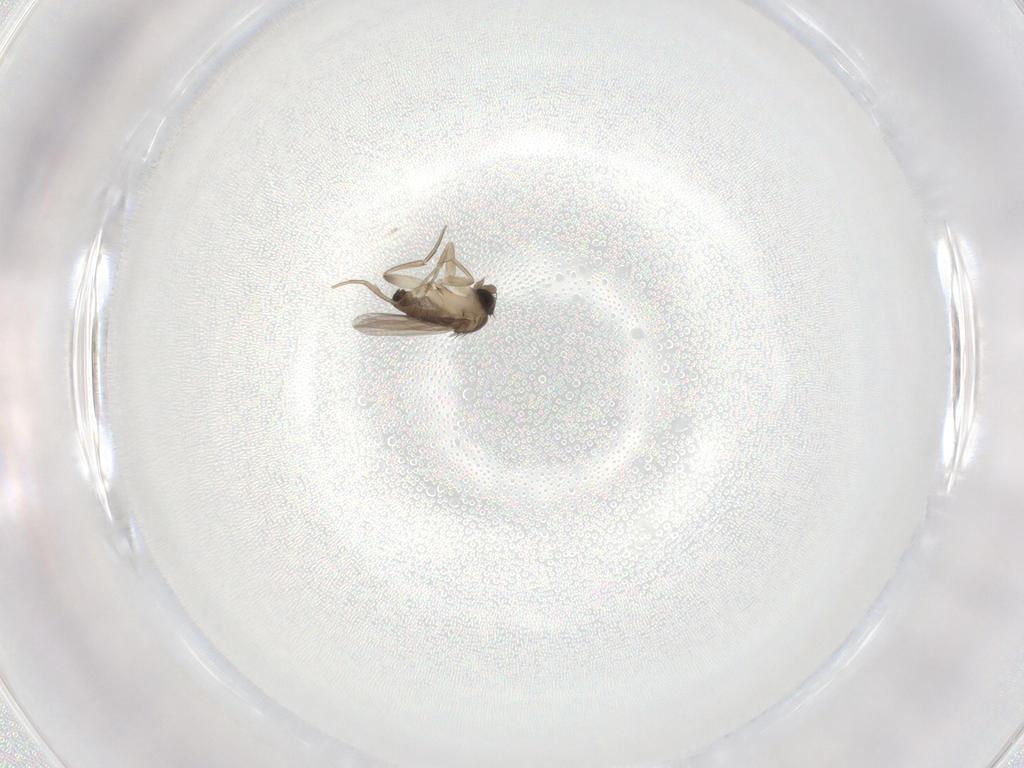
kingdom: Animalia
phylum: Arthropoda
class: Insecta
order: Diptera
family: Phoridae
